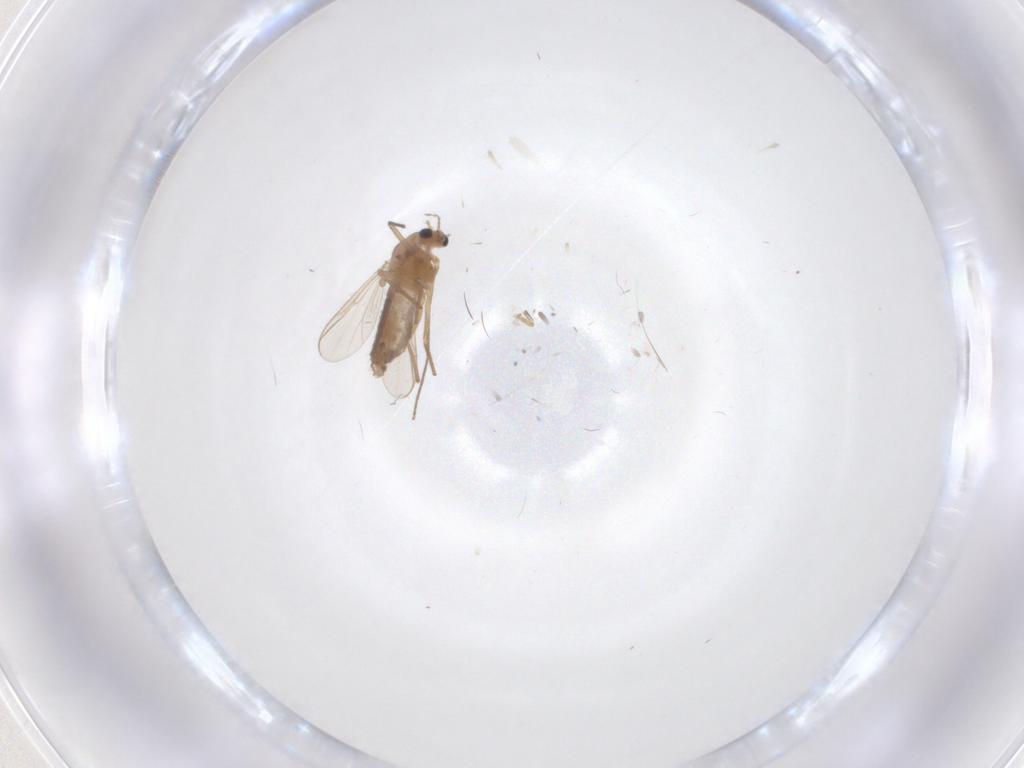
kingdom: Animalia
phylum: Arthropoda
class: Insecta
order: Diptera
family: Chironomidae
